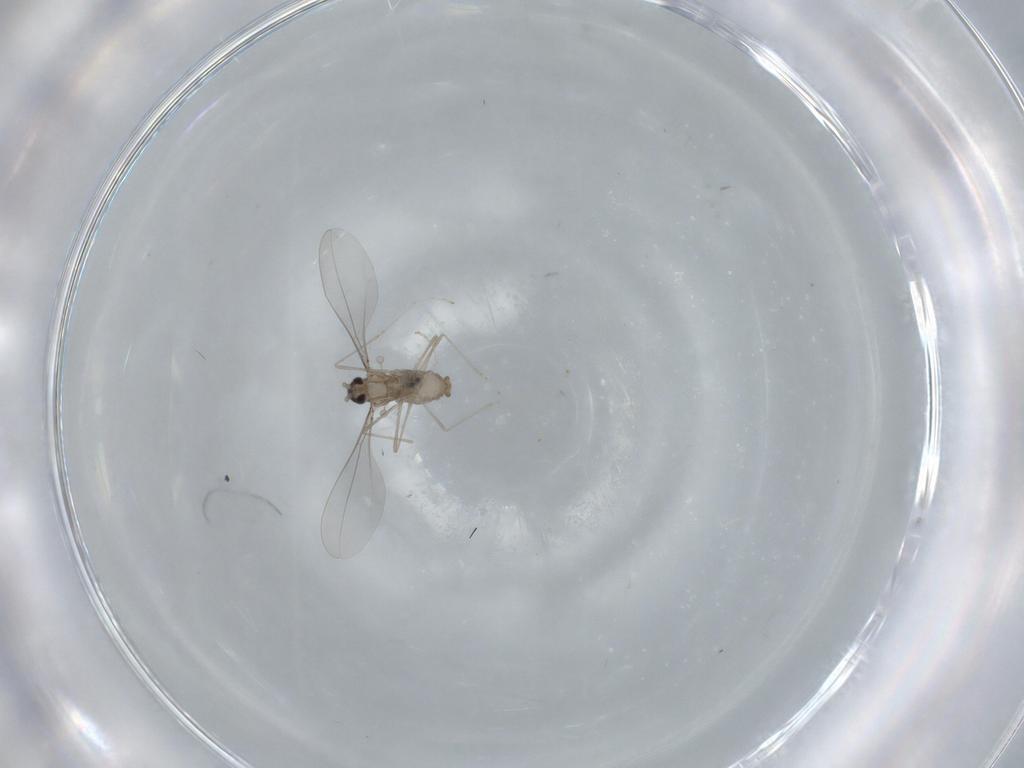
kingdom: Animalia
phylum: Arthropoda
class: Insecta
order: Diptera
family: Cecidomyiidae
